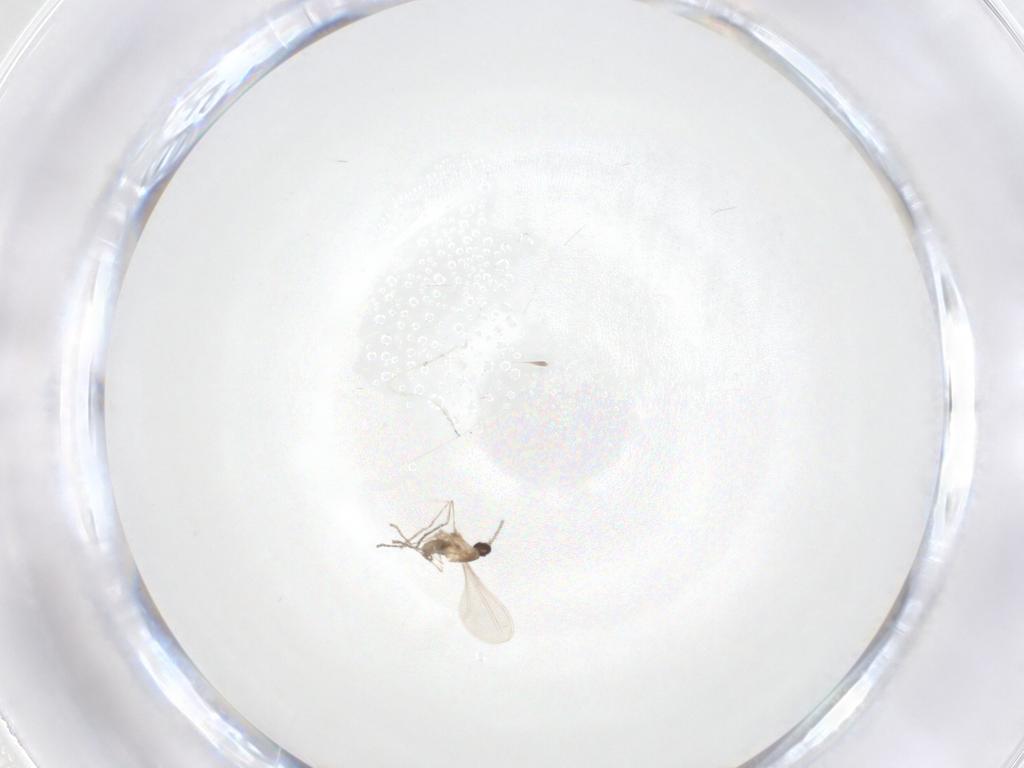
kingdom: Animalia
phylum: Arthropoda
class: Insecta
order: Diptera
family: Cecidomyiidae
